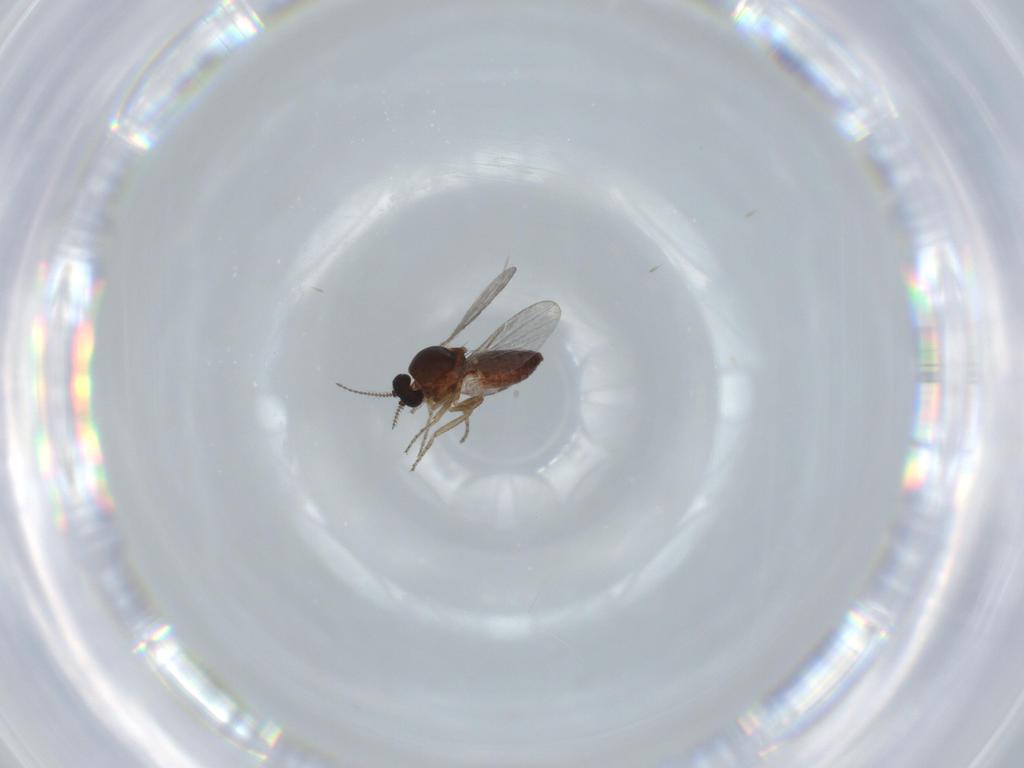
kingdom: Animalia
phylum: Arthropoda
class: Insecta
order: Diptera
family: Ceratopogonidae
